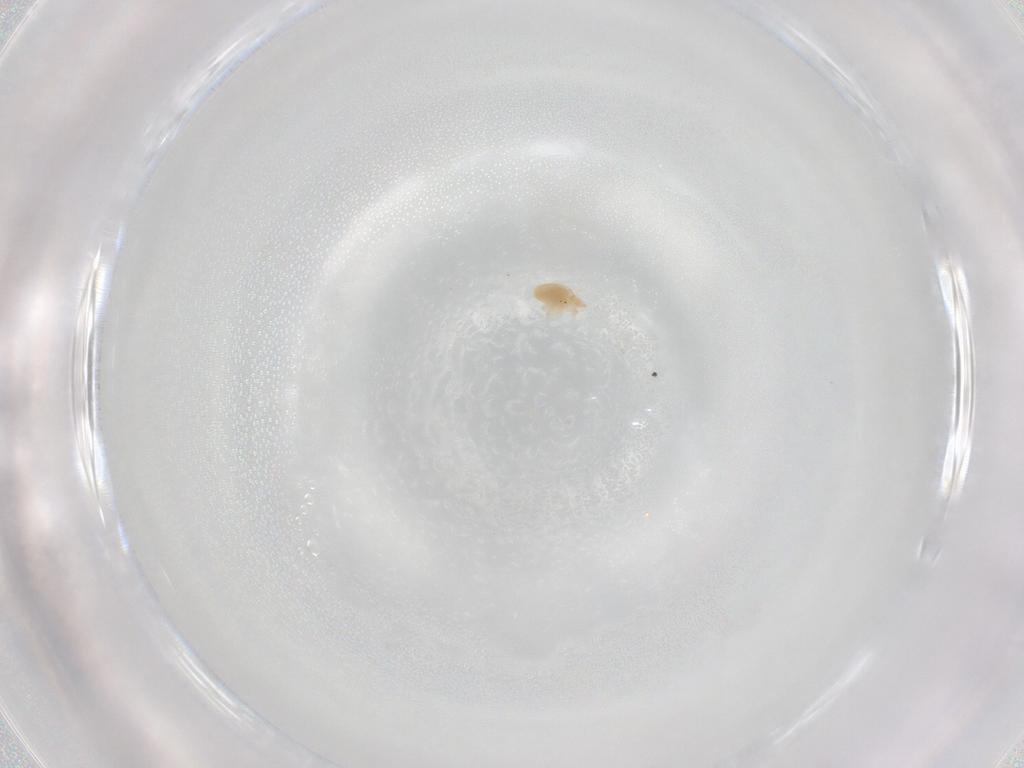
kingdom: Animalia
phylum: Arthropoda
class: Arachnida
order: Trombidiformes
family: Bdellidae
